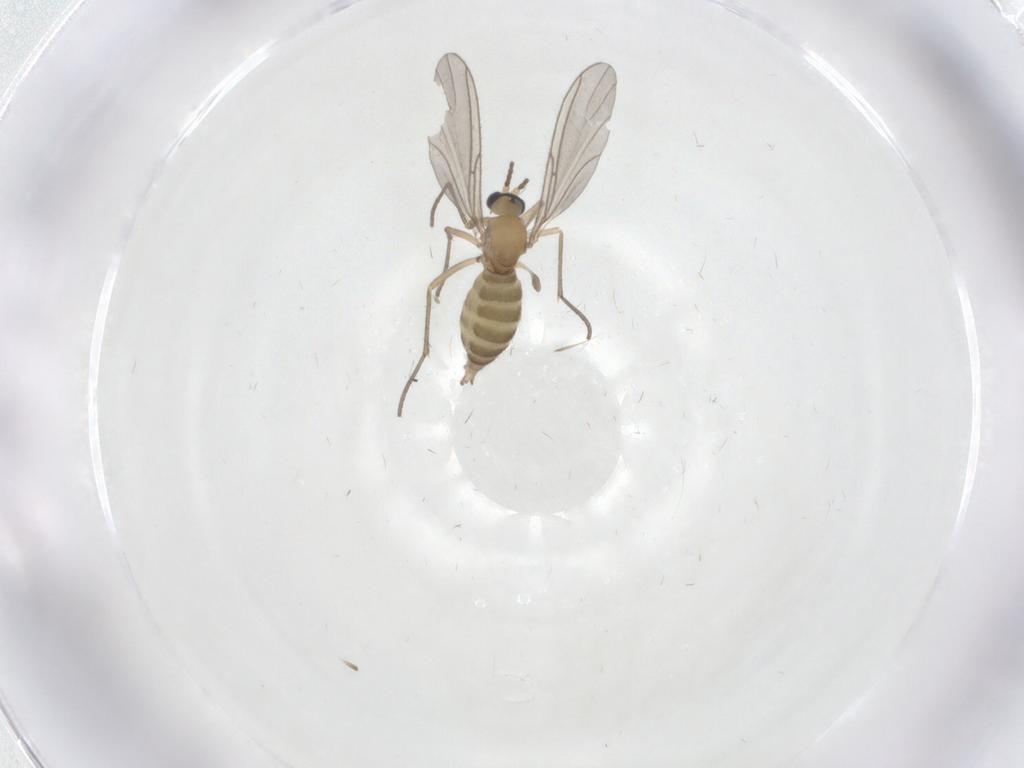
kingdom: Animalia
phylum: Arthropoda
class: Insecta
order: Diptera
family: Sciaridae
